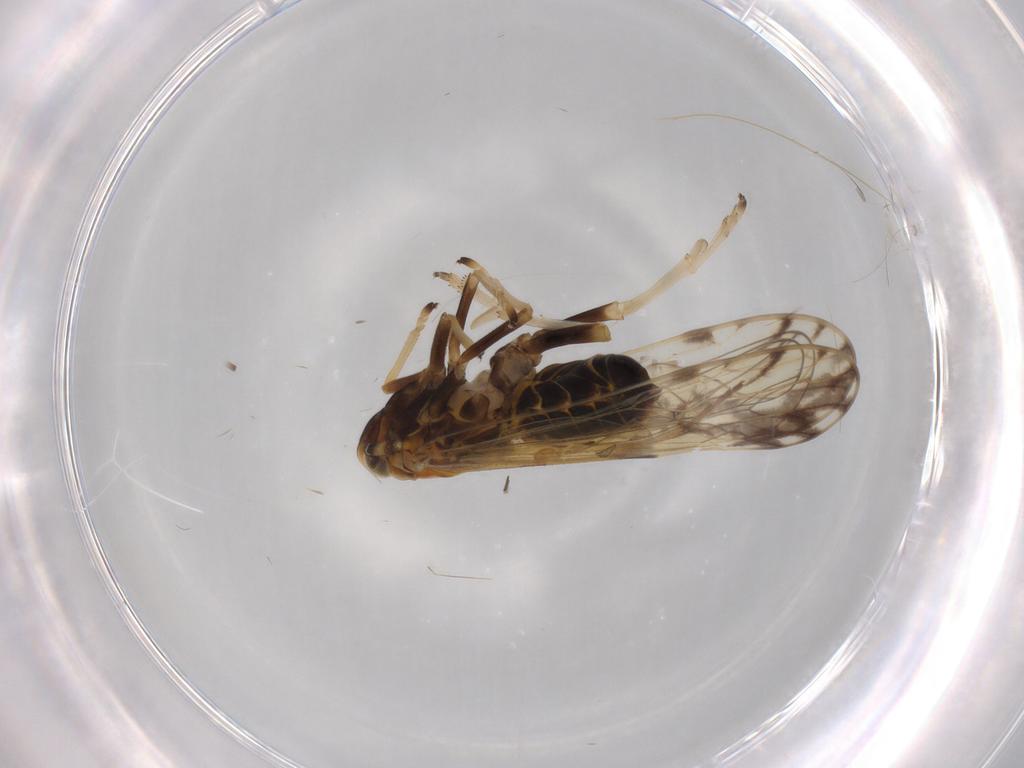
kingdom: Animalia
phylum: Arthropoda
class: Insecta
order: Hemiptera
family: Delphacidae
